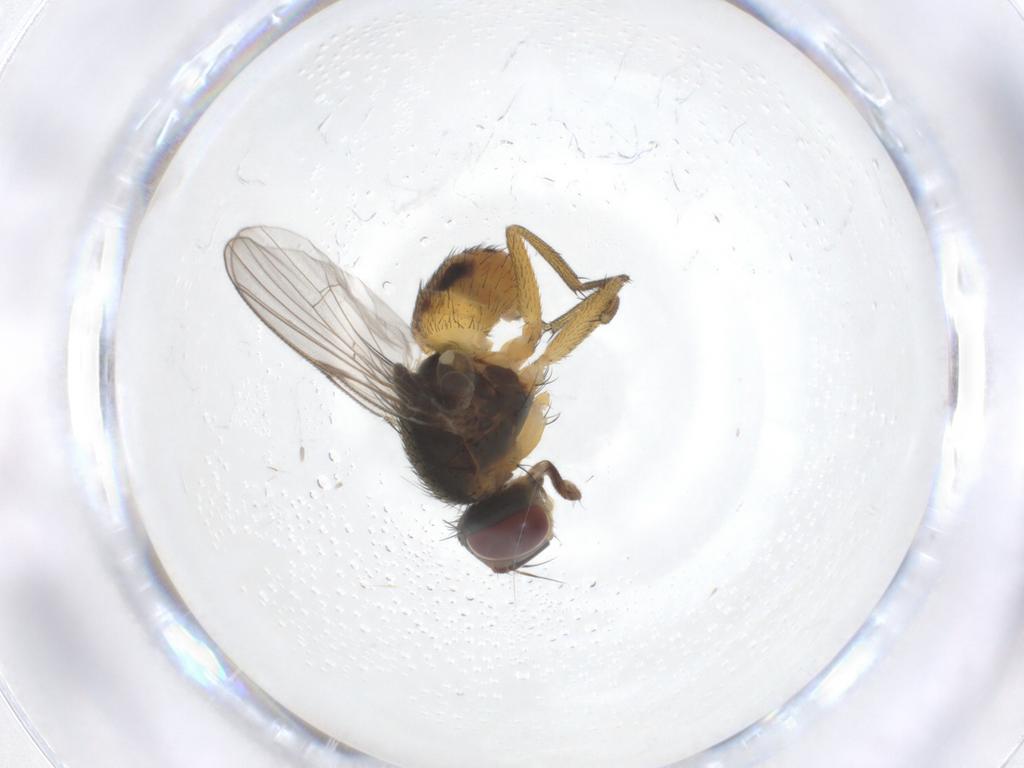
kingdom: Animalia
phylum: Arthropoda
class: Insecta
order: Diptera
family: Muscidae
